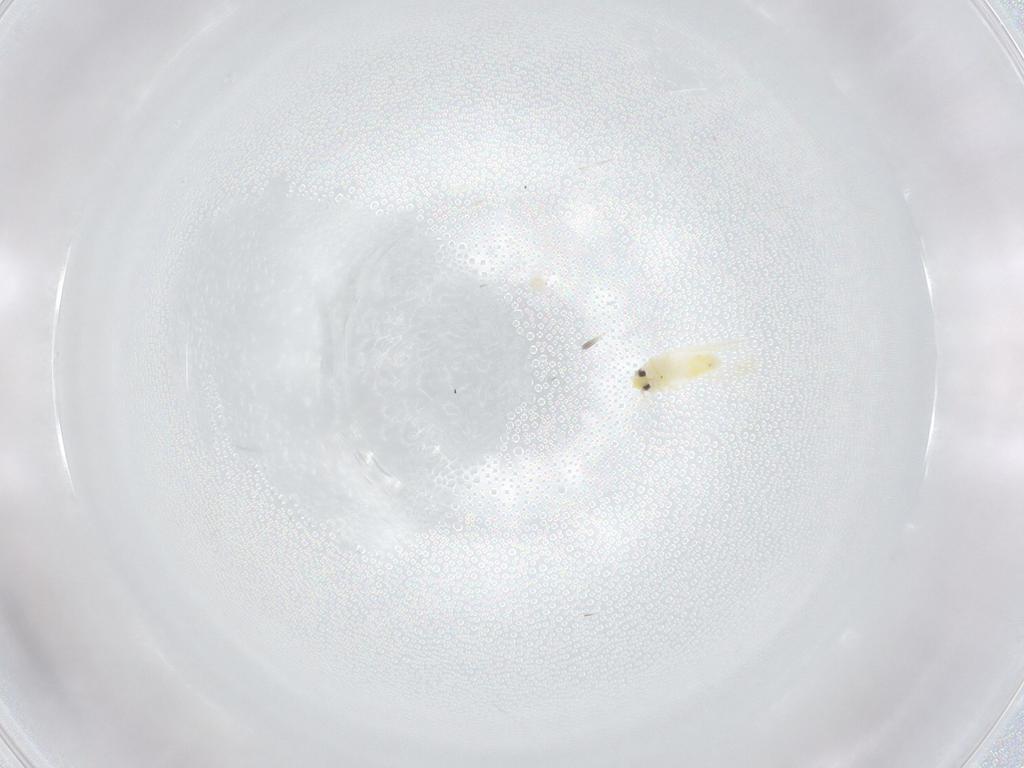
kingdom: Animalia
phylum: Arthropoda
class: Insecta
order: Hemiptera
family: Aleyrodidae
